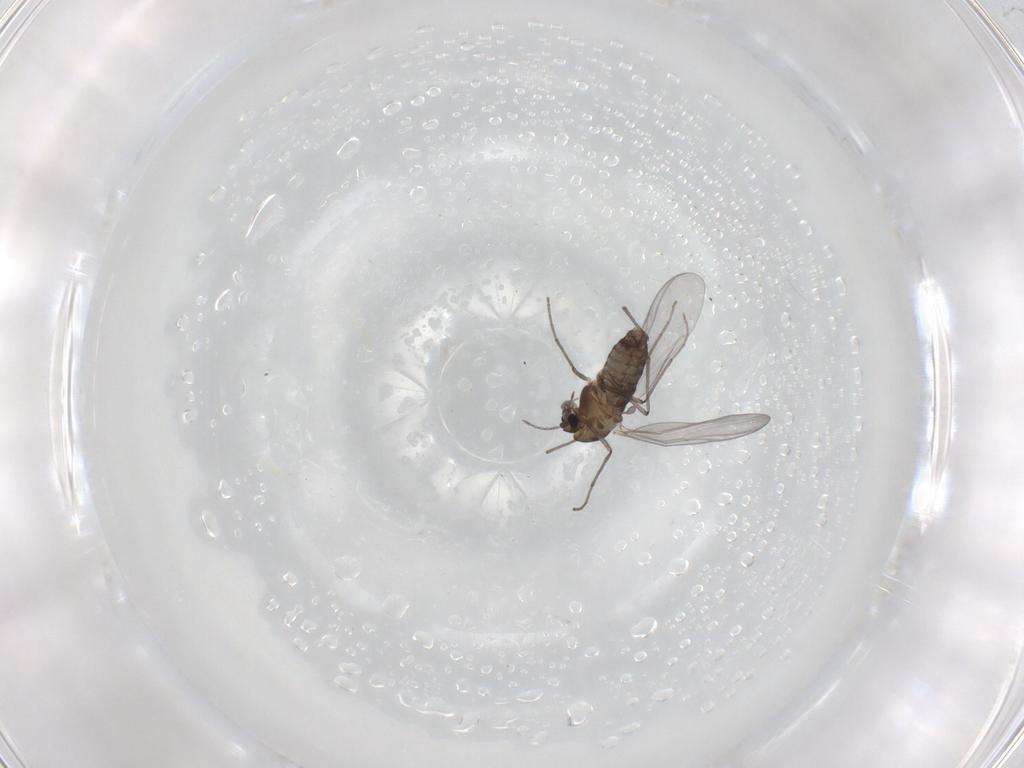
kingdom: Animalia
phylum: Arthropoda
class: Insecta
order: Diptera
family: Chironomidae
